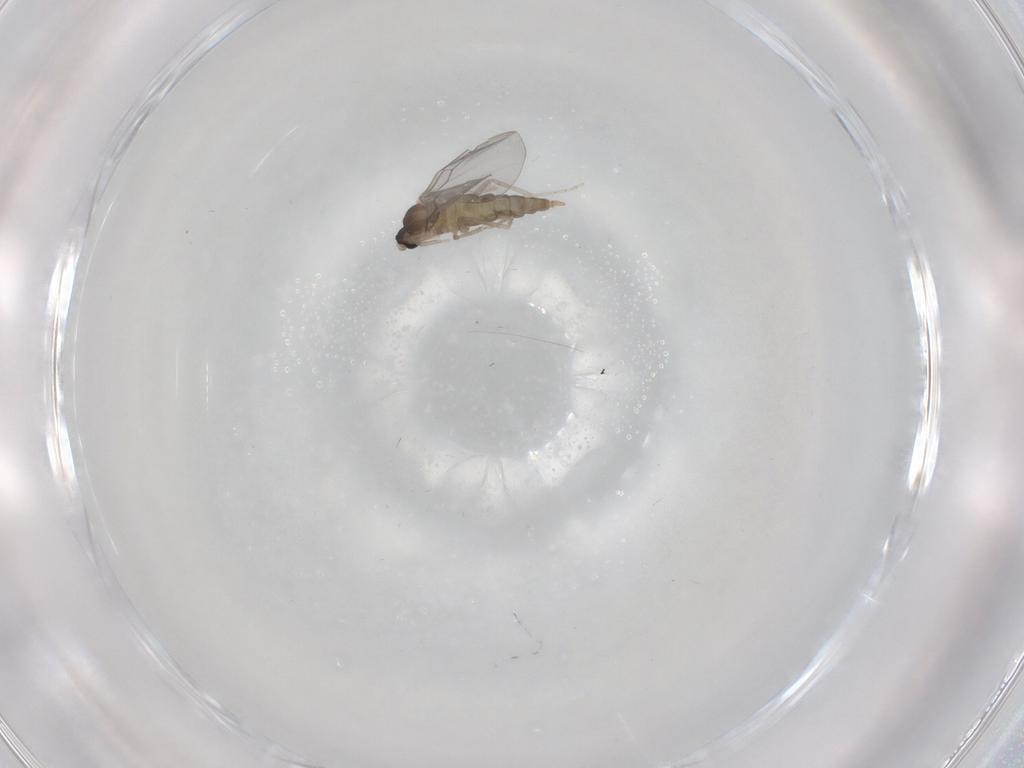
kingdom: Animalia
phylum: Arthropoda
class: Insecta
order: Diptera
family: Cecidomyiidae
